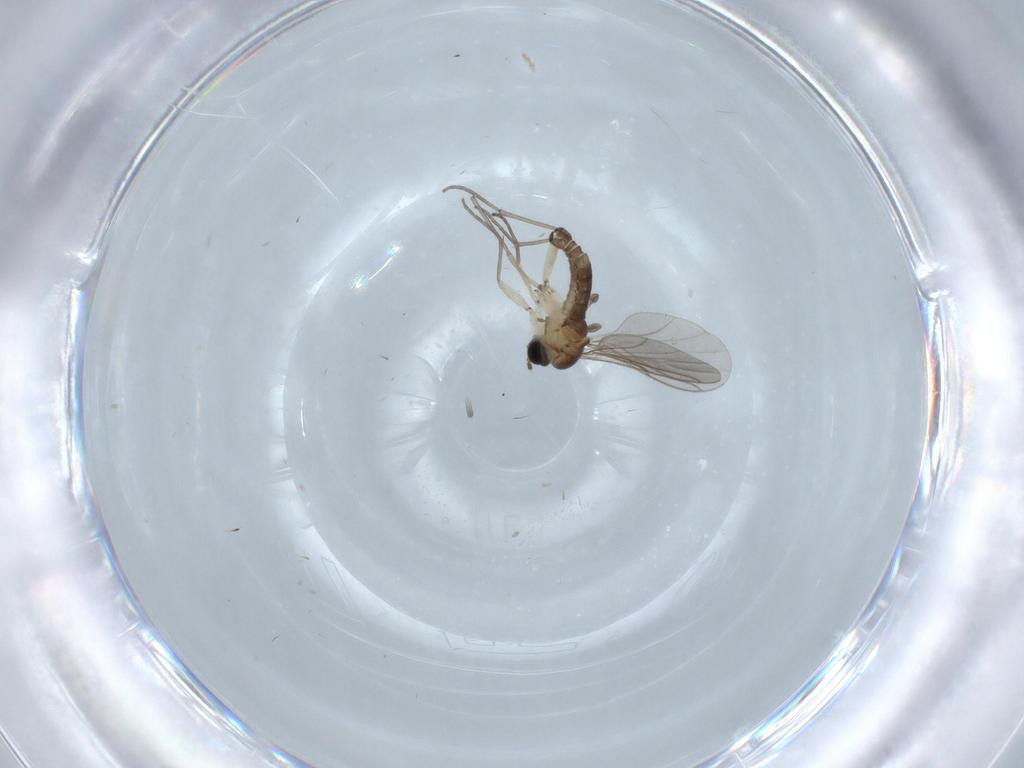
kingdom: Animalia
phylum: Arthropoda
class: Insecta
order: Diptera
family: Sciaridae
